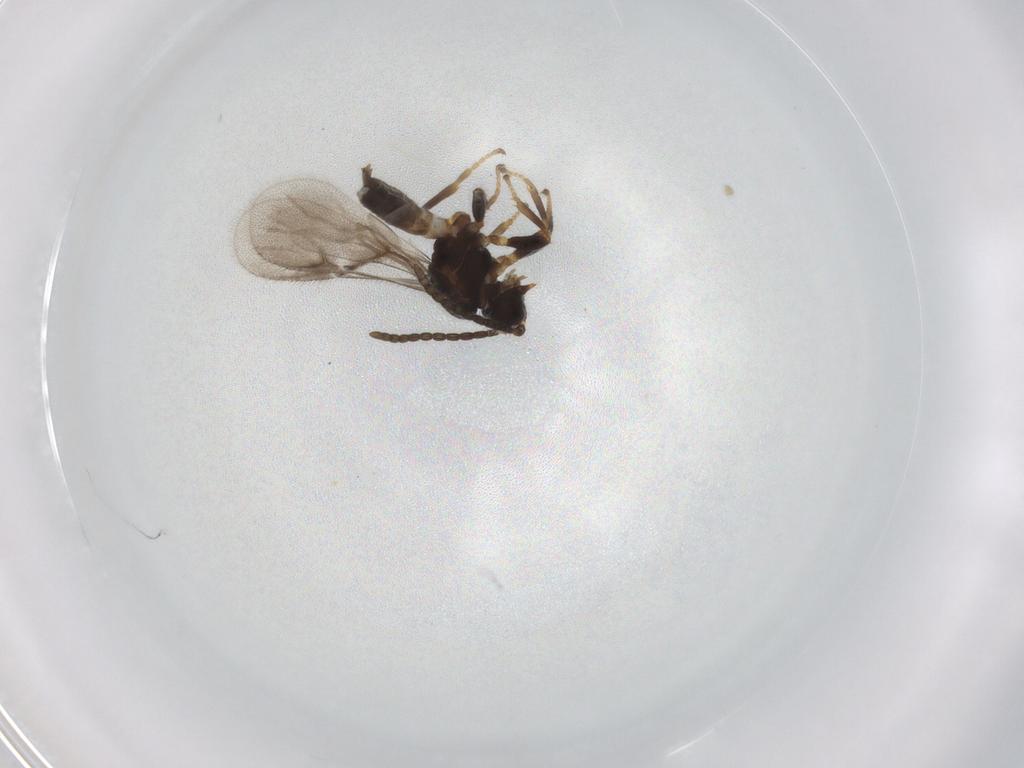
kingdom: Animalia
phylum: Arthropoda
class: Insecta
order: Hymenoptera
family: Braconidae
